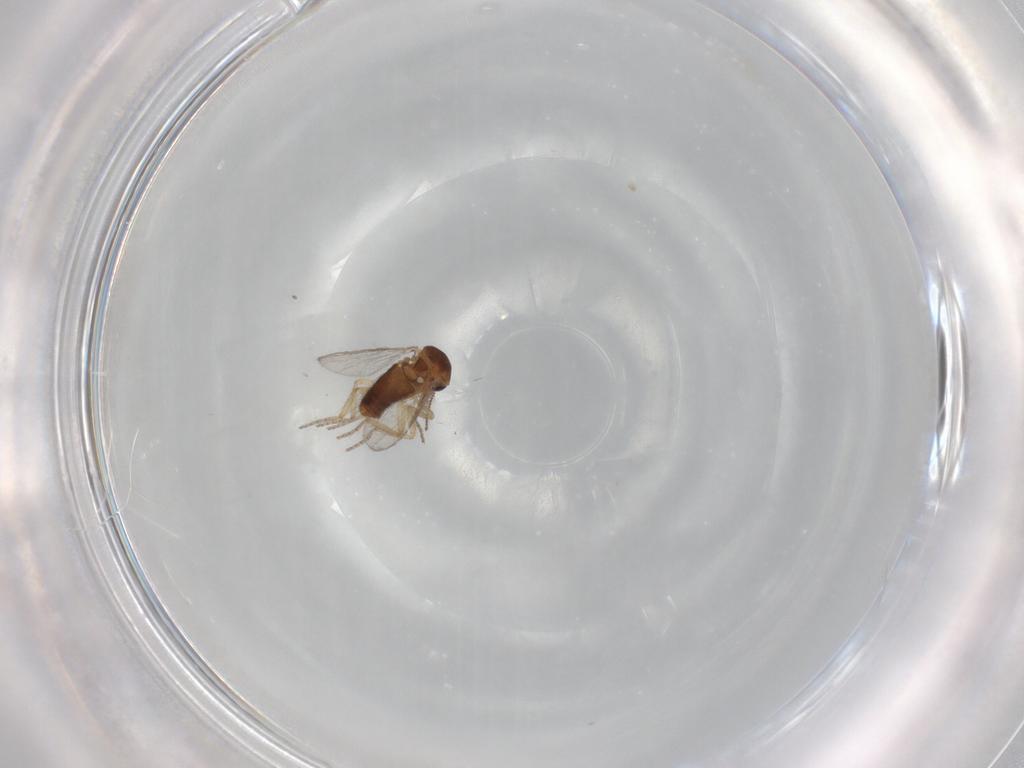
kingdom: Animalia
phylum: Arthropoda
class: Insecta
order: Diptera
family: Ceratopogonidae
